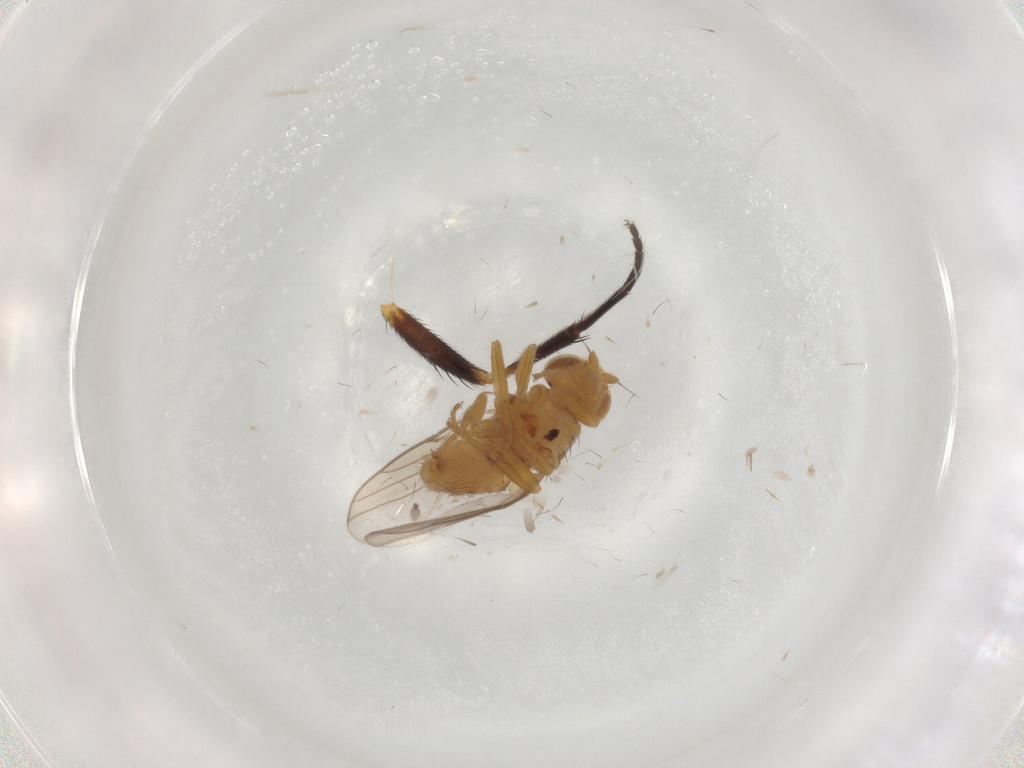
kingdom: Animalia
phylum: Arthropoda
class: Insecta
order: Diptera
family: Chloropidae
